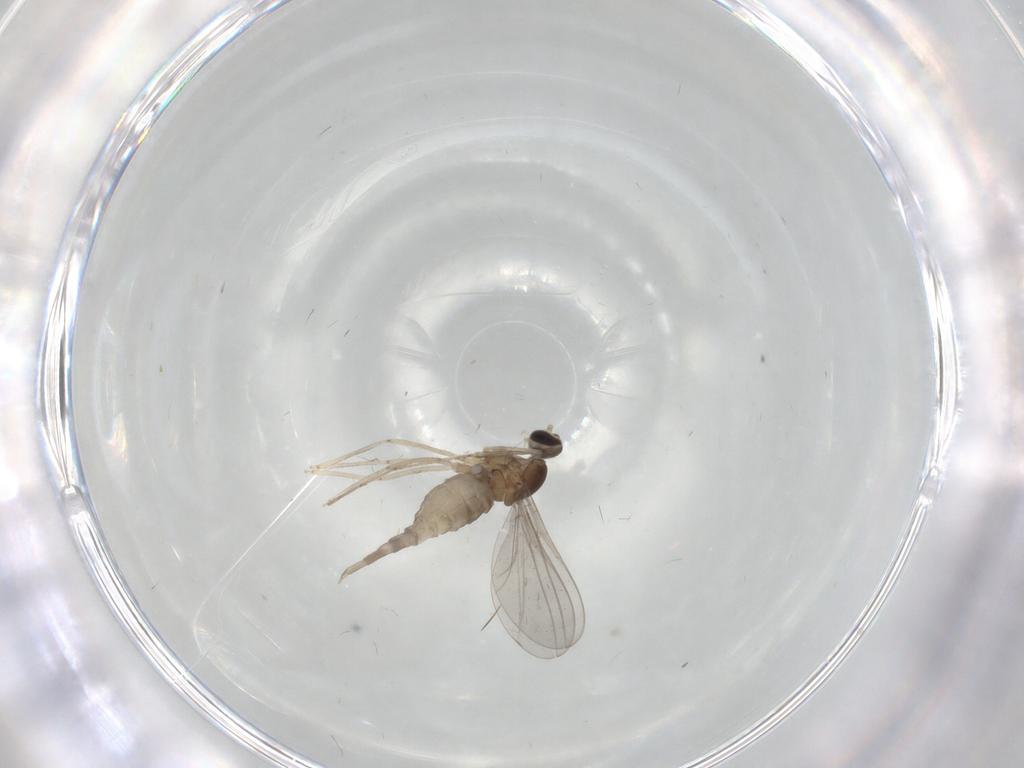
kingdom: Animalia
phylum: Arthropoda
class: Insecta
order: Diptera
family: Cecidomyiidae
